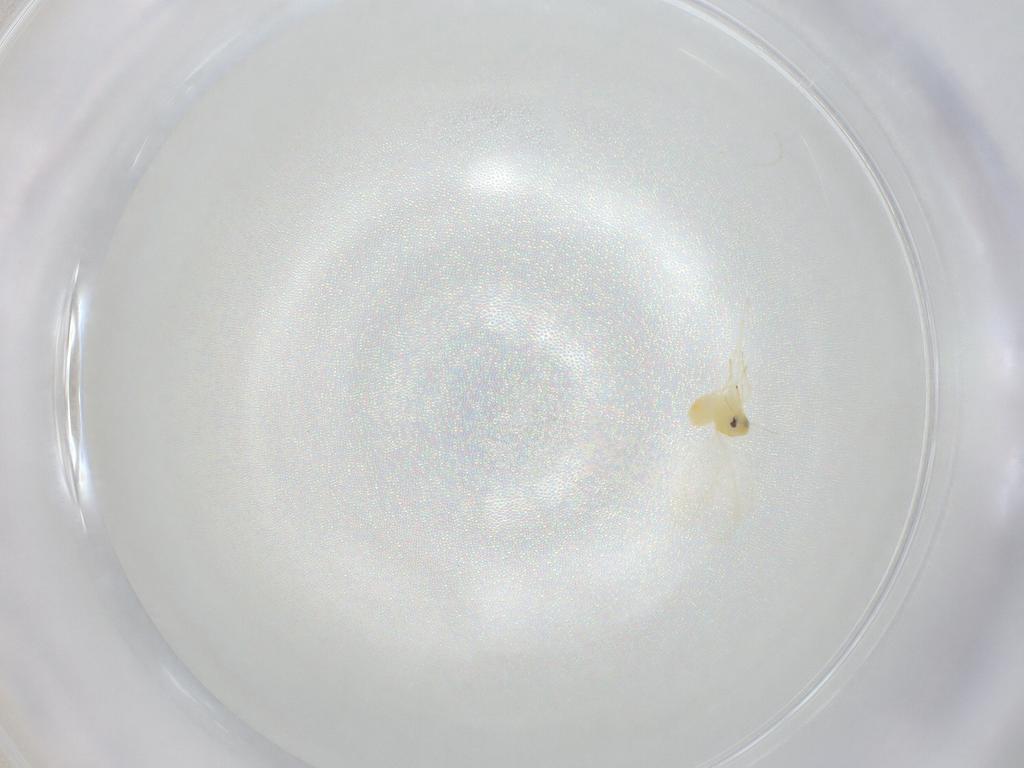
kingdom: Animalia
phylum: Arthropoda
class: Insecta
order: Hemiptera
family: Aleyrodidae
